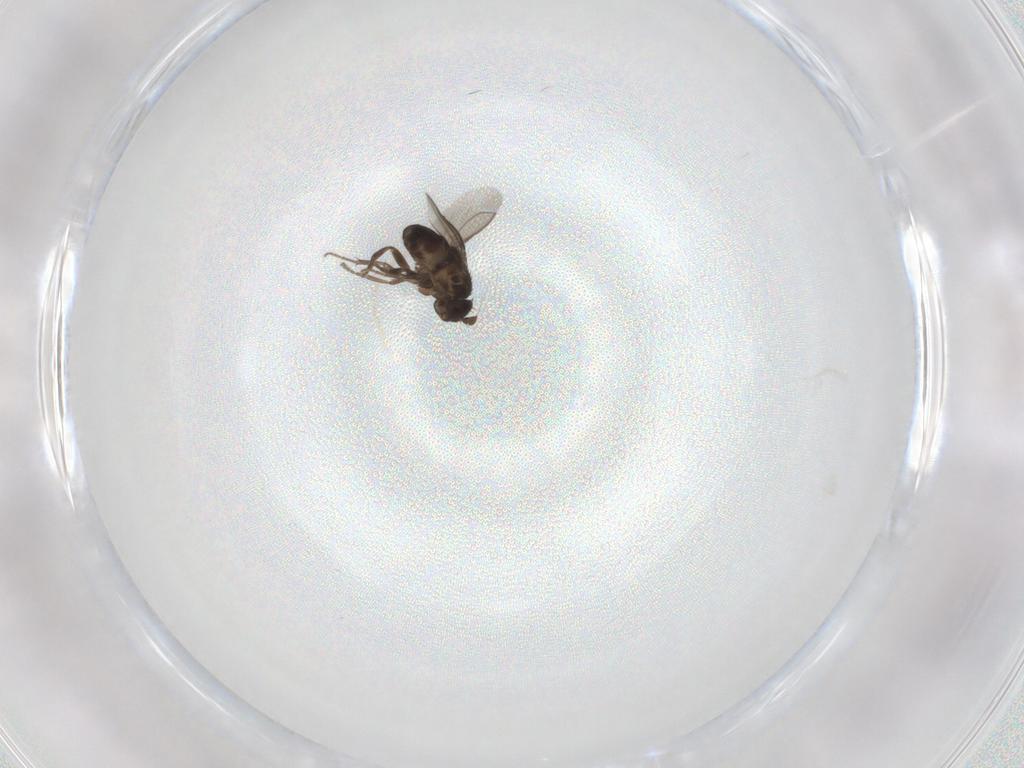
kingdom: Animalia
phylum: Arthropoda
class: Insecta
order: Diptera
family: Sphaeroceridae
